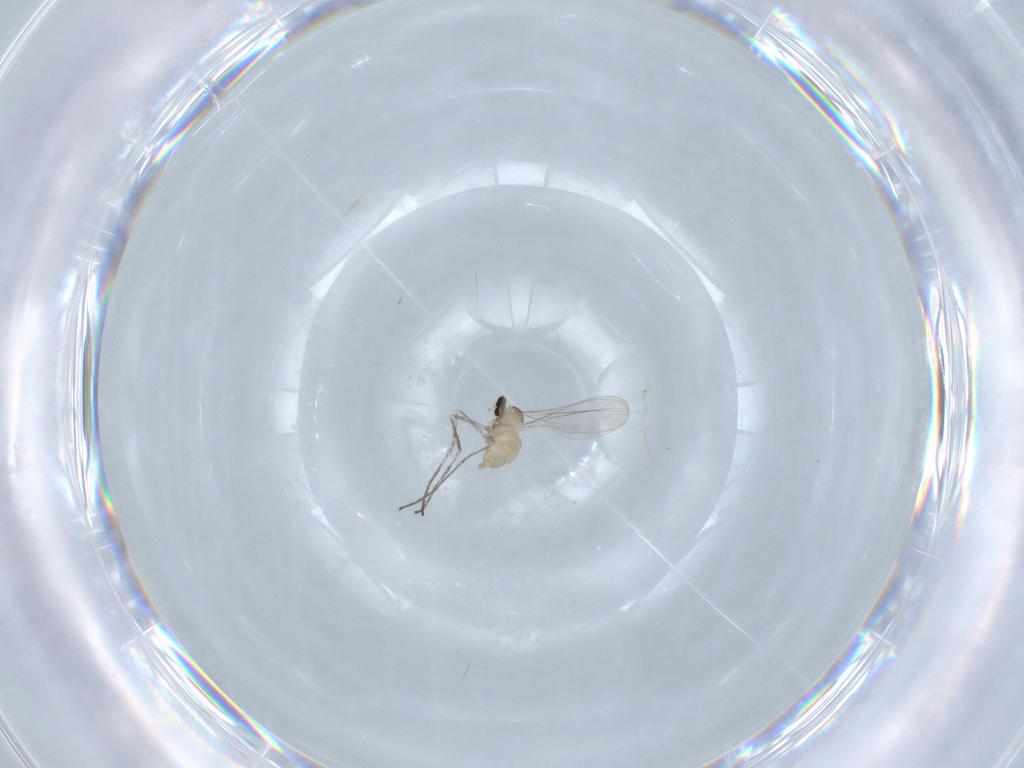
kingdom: Animalia
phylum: Arthropoda
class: Insecta
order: Diptera
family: Cecidomyiidae
